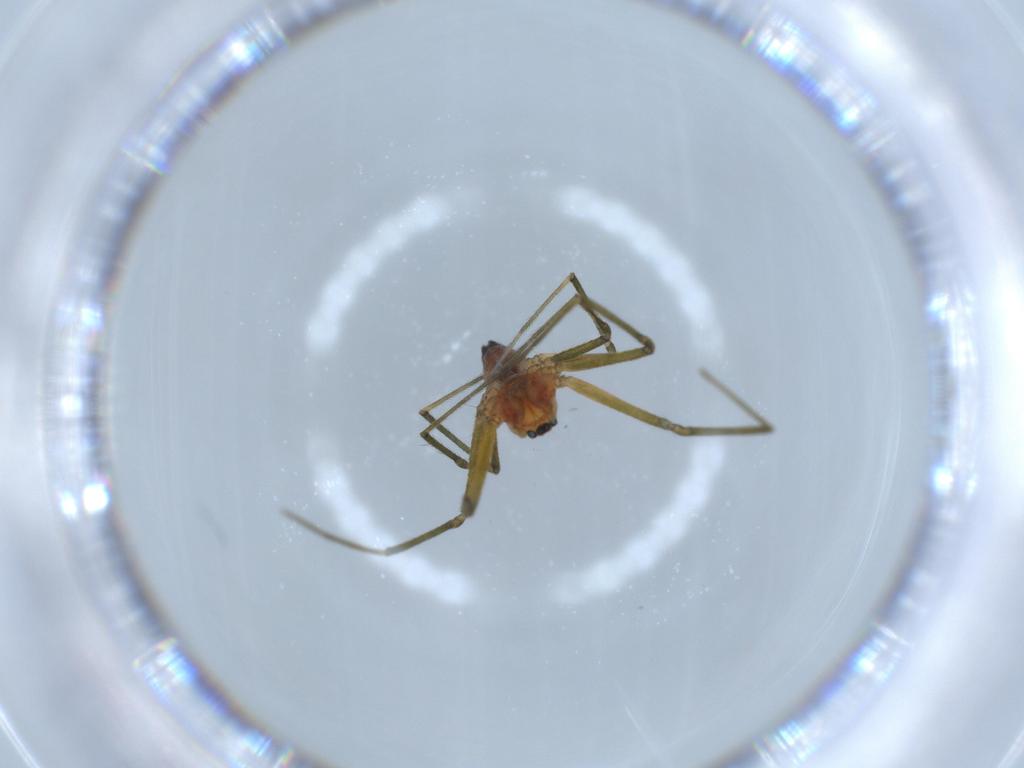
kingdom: Animalia
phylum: Arthropoda
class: Arachnida
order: Araneae
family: Linyphiidae
